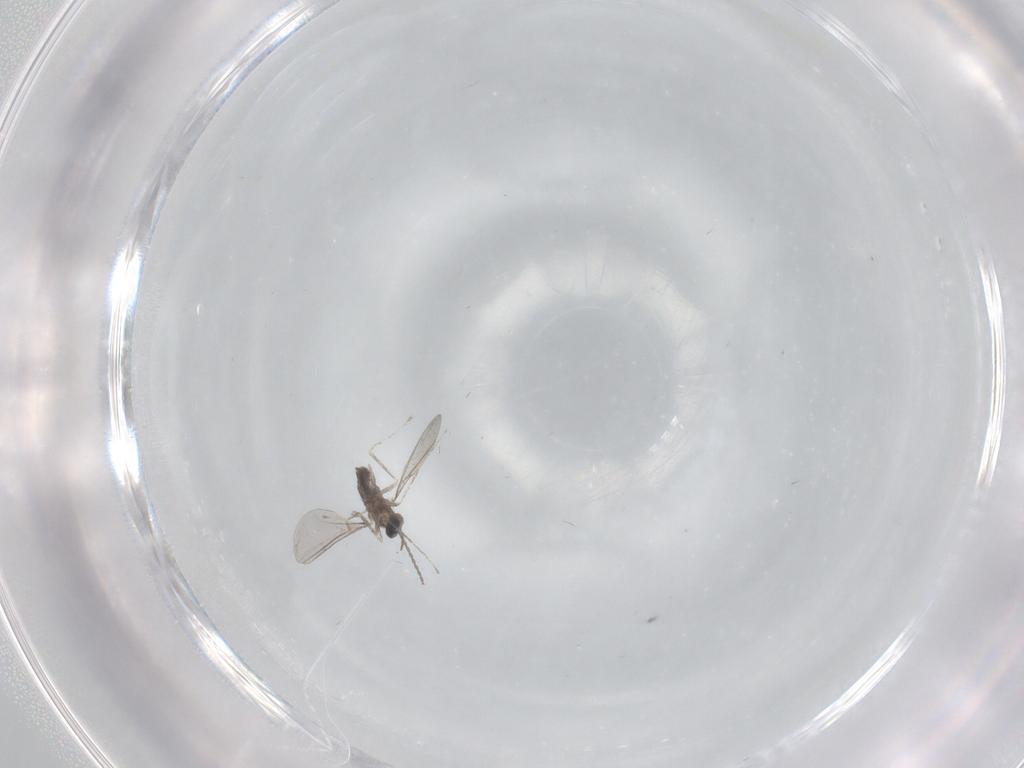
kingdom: Animalia
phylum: Arthropoda
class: Insecta
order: Diptera
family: Cecidomyiidae
